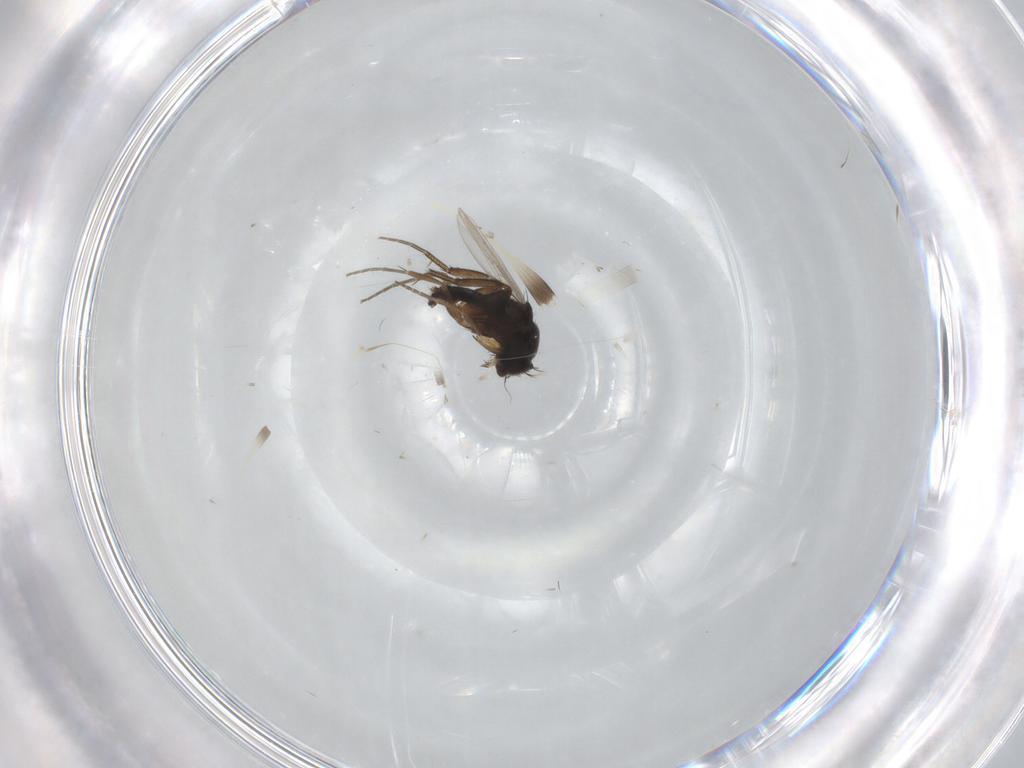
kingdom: Animalia
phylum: Arthropoda
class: Insecta
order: Diptera
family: Phoridae
